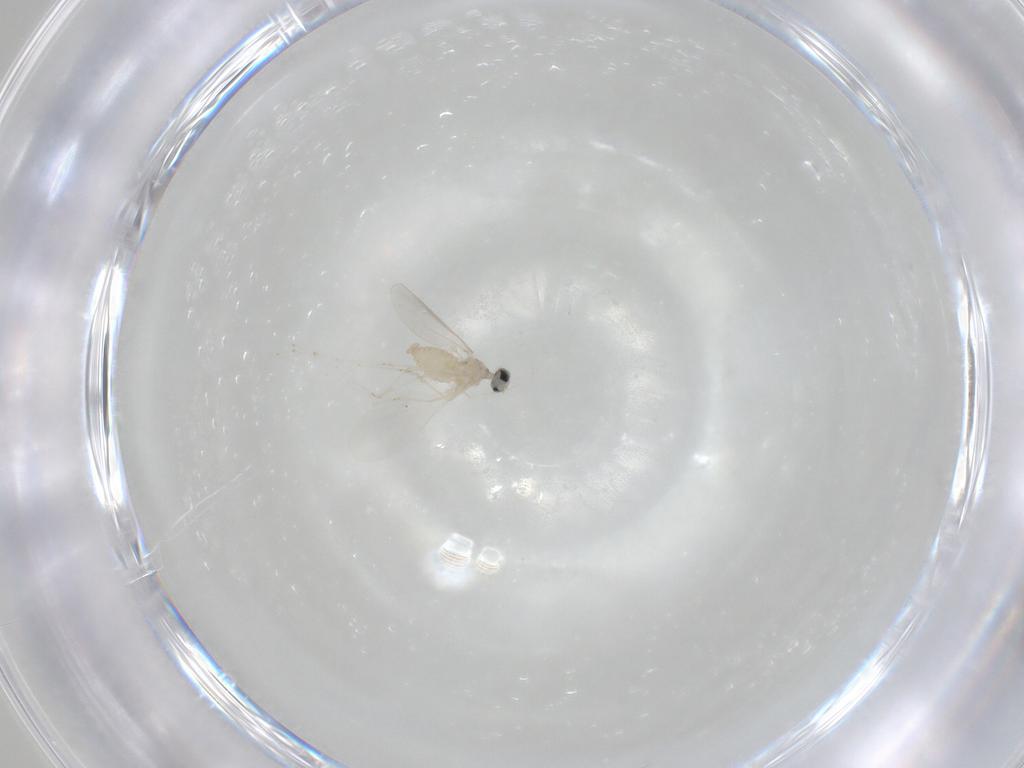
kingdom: Animalia
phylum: Arthropoda
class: Insecta
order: Diptera
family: Cecidomyiidae
